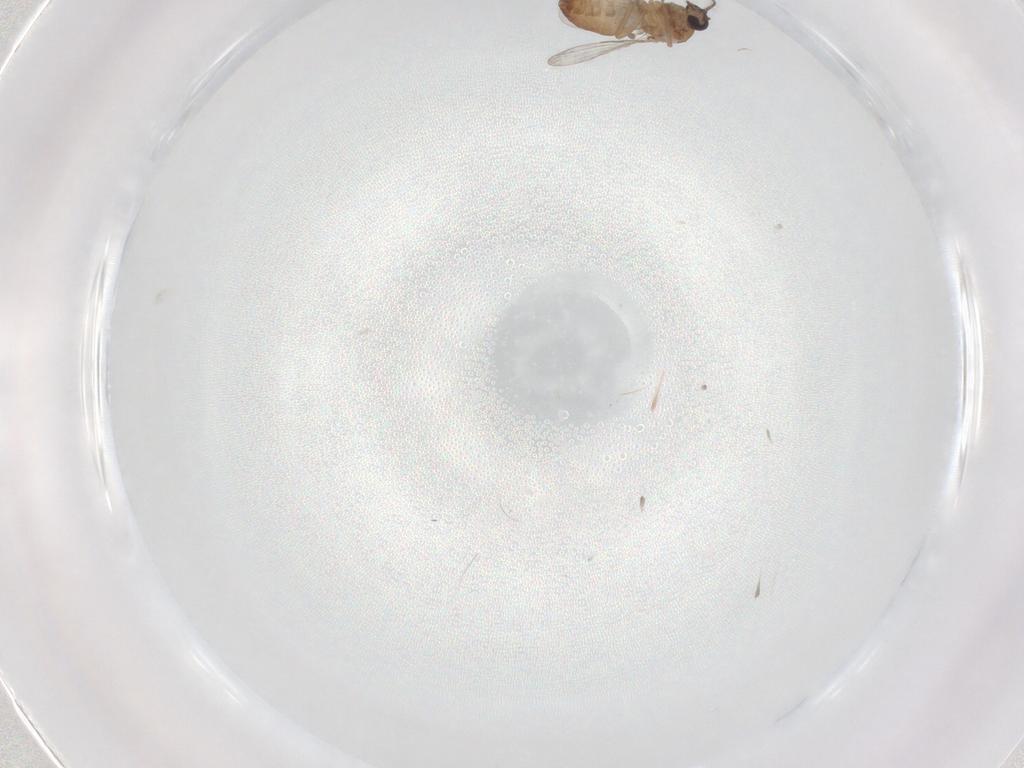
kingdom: Animalia
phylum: Arthropoda
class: Insecta
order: Diptera
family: Ceratopogonidae
